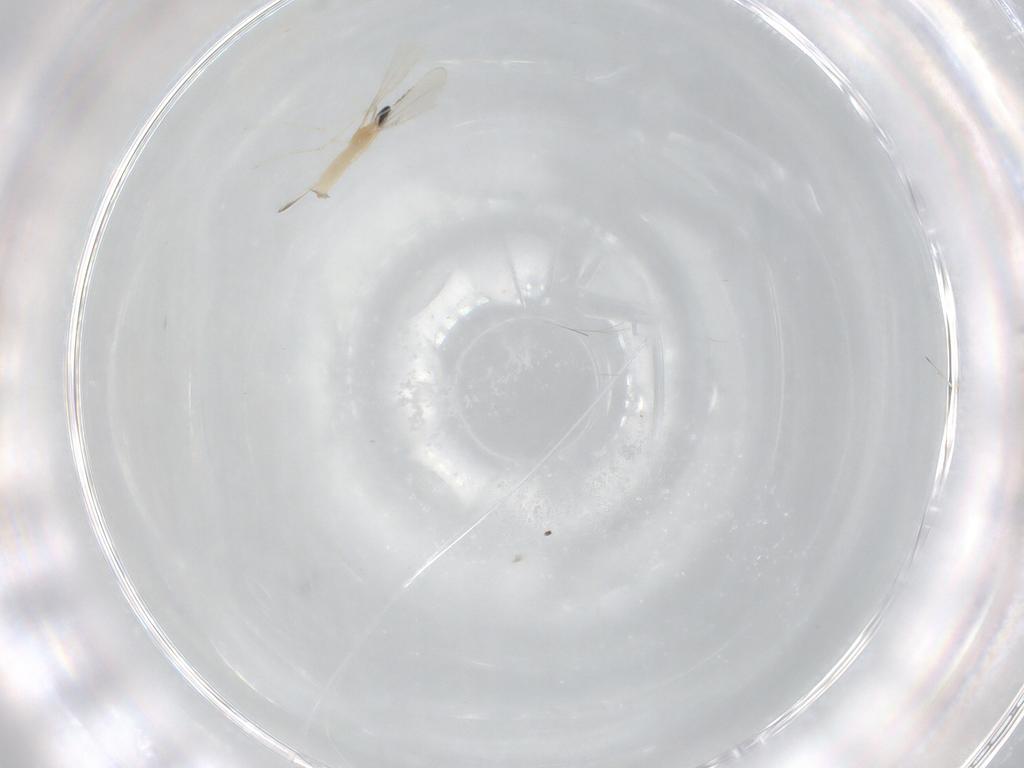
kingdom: Animalia
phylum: Arthropoda
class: Insecta
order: Diptera
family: Cecidomyiidae
